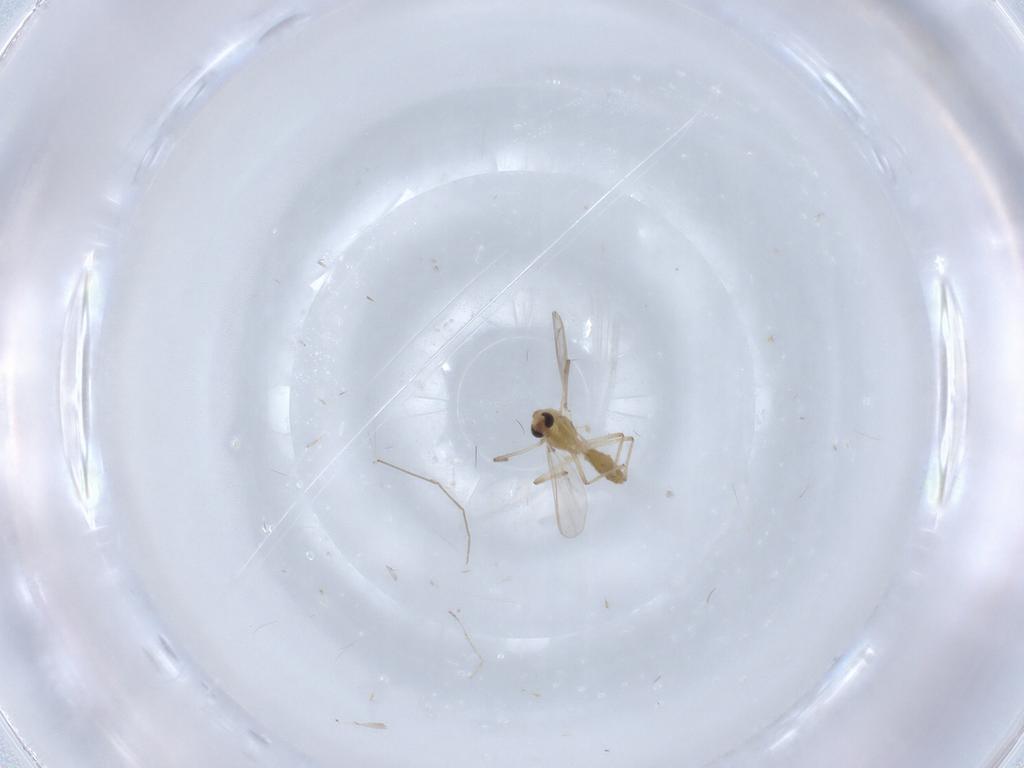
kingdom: Animalia
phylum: Arthropoda
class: Insecta
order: Diptera
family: Chironomidae
